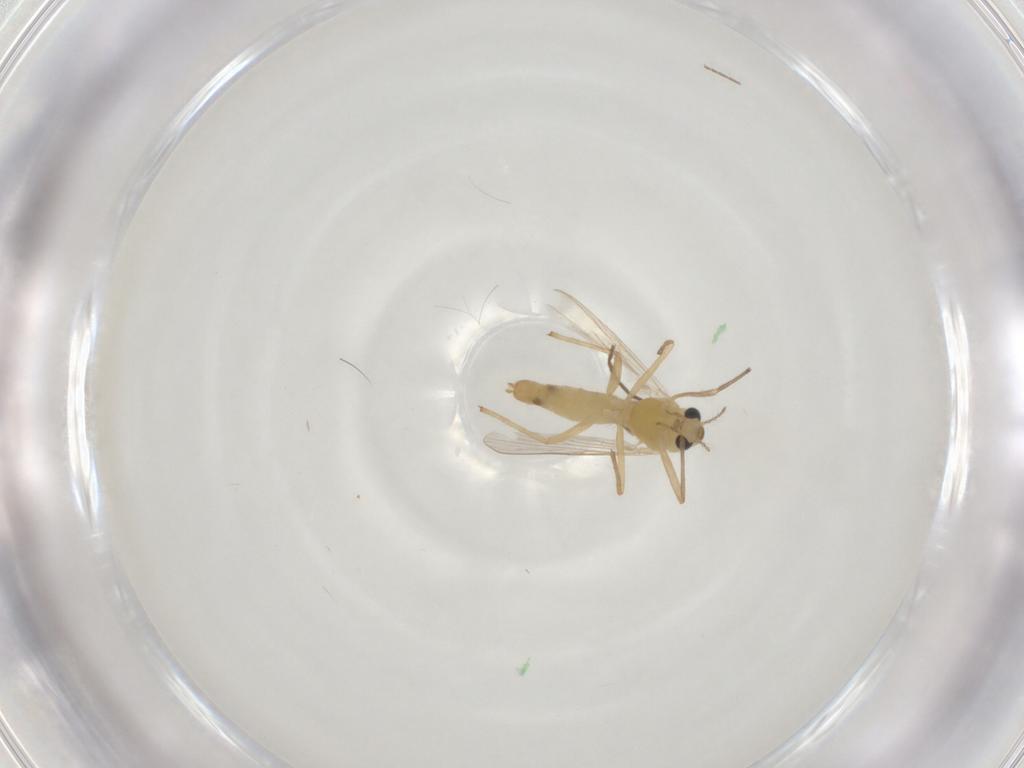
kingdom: Animalia
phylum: Arthropoda
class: Insecta
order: Diptera
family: Chironomidae
